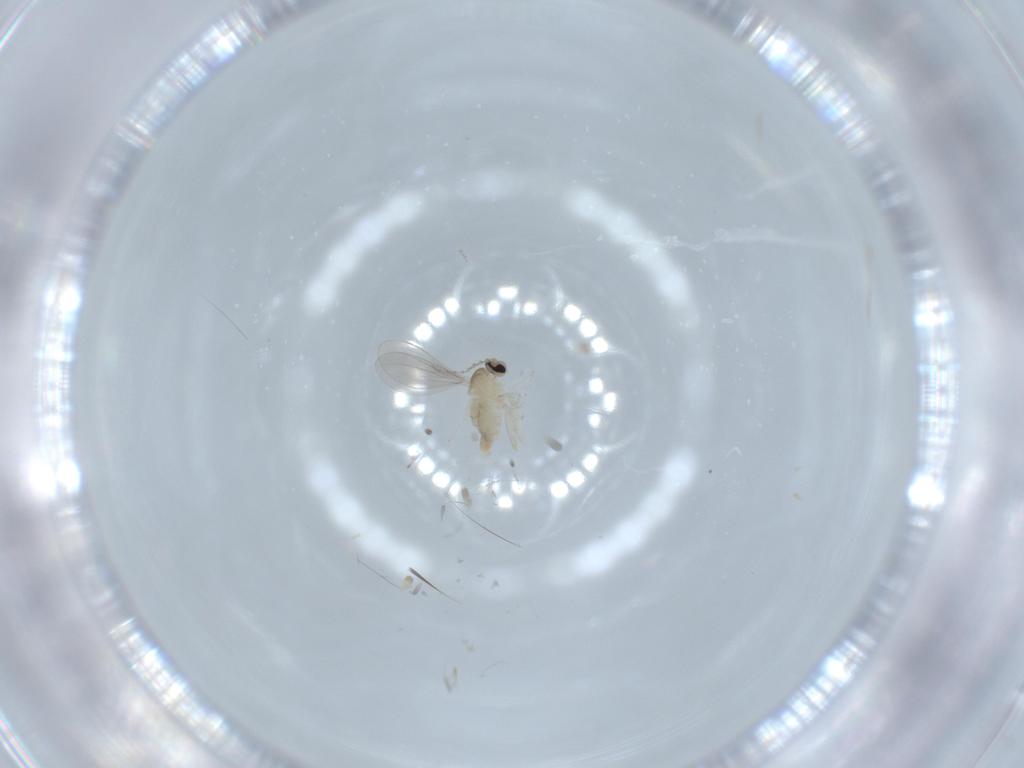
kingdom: Animalia
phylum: Arthropoda
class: Insecta
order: Diptera
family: Cecidomyiidae
